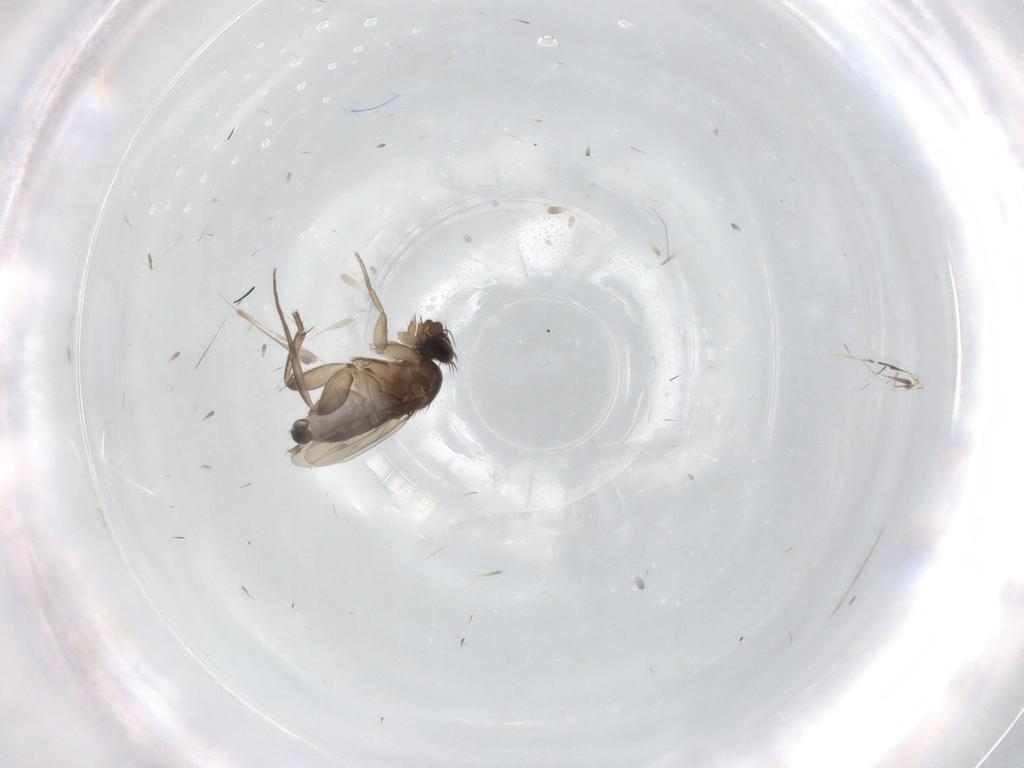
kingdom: Animalia
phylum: Arthropoda
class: Insecta
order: Diptera
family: Phoridae
